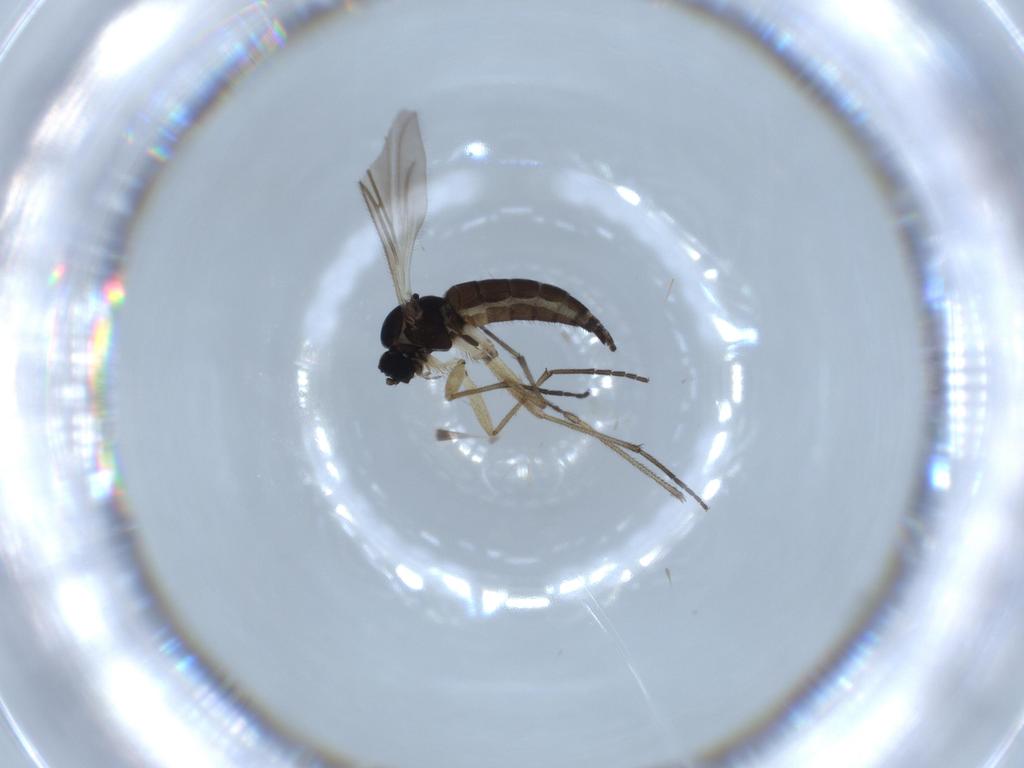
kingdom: Animalia
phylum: Arthropoda
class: Insecta
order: Diptera
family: Sciaridae
